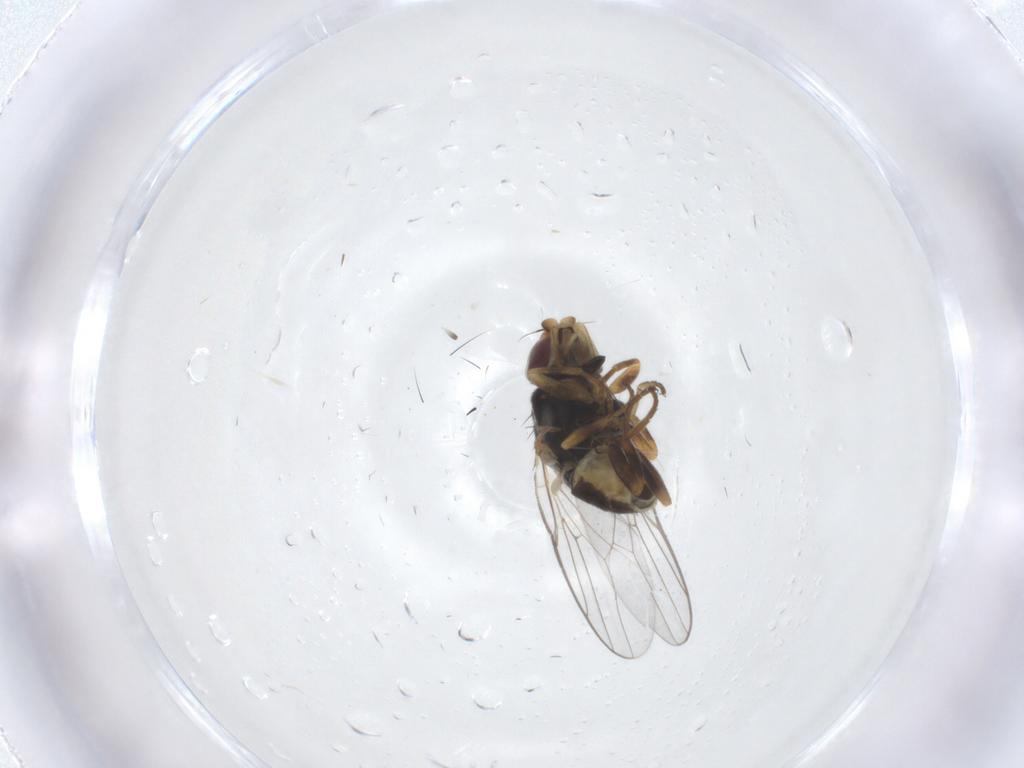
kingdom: Animalia
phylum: Arthropoda
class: Insecta
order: Diptera
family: Chloropidae
